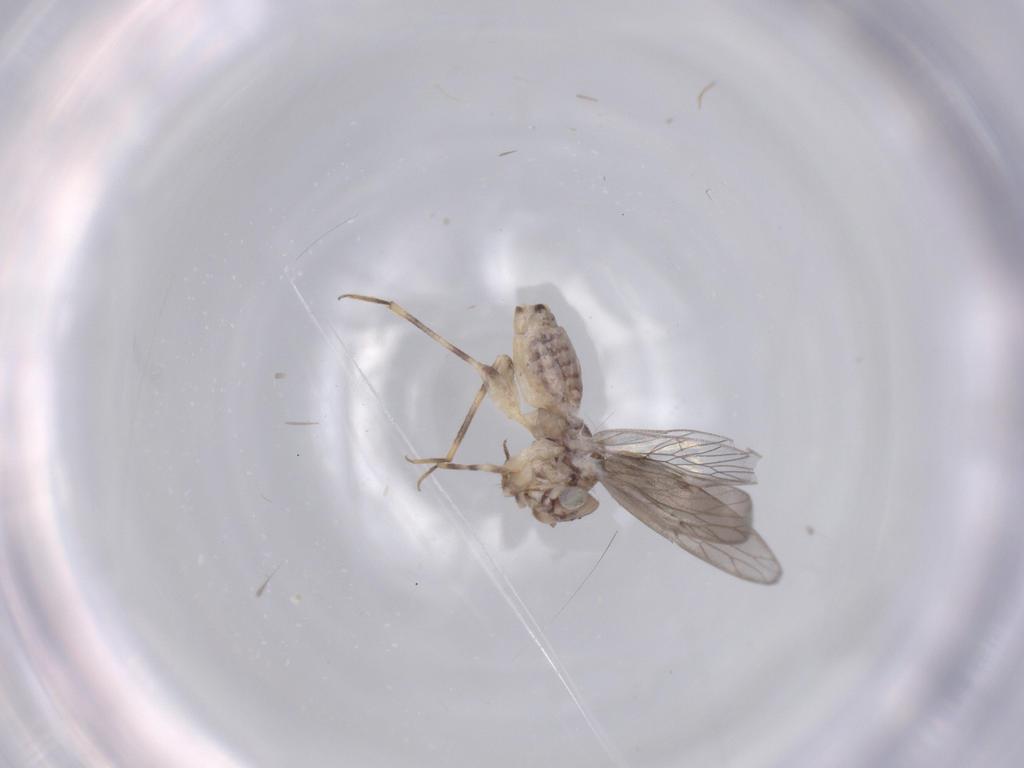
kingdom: Animalia
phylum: Arthropoda
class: Insecta
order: Psocodea
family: Lepidopsocidae
